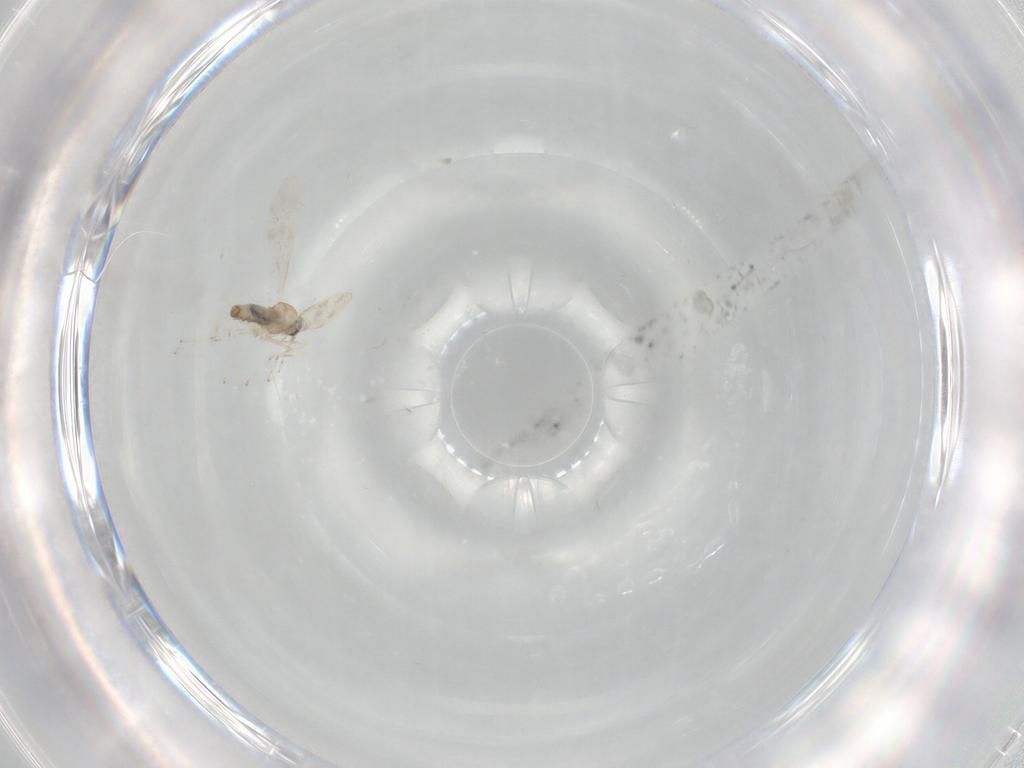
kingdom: Animalia
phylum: Arthropoda
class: Insecta
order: Diptera
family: Cecidomyiidae
